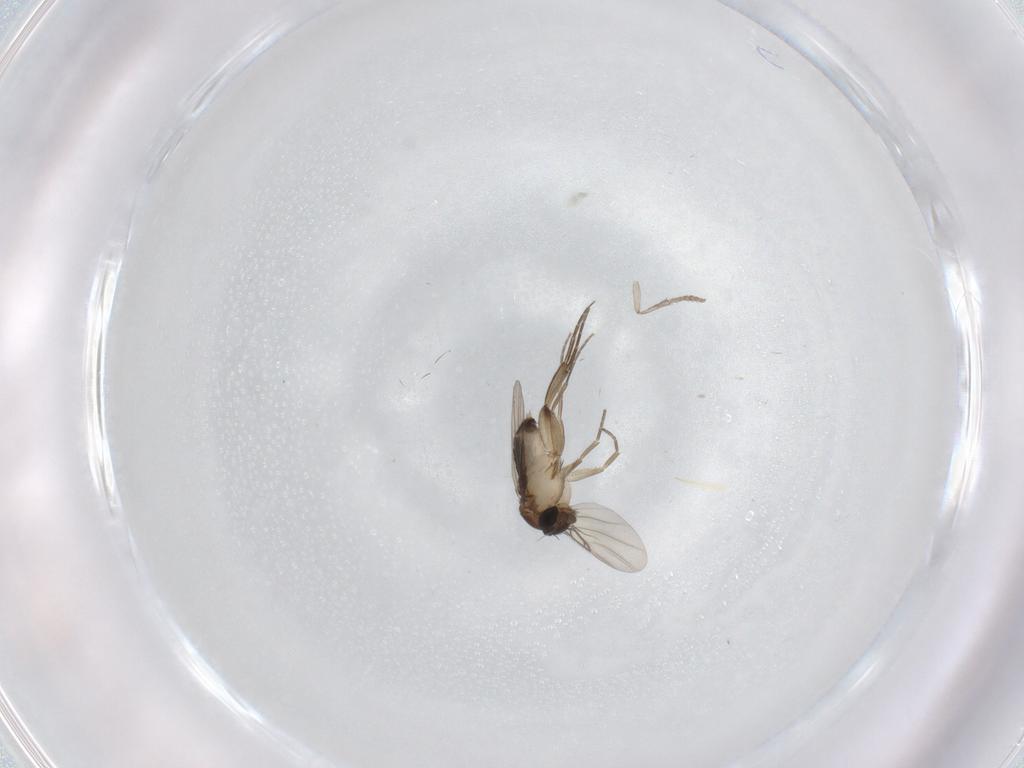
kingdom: Animalia
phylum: Arthropoda
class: Insecta
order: Diptera
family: Phoridae
